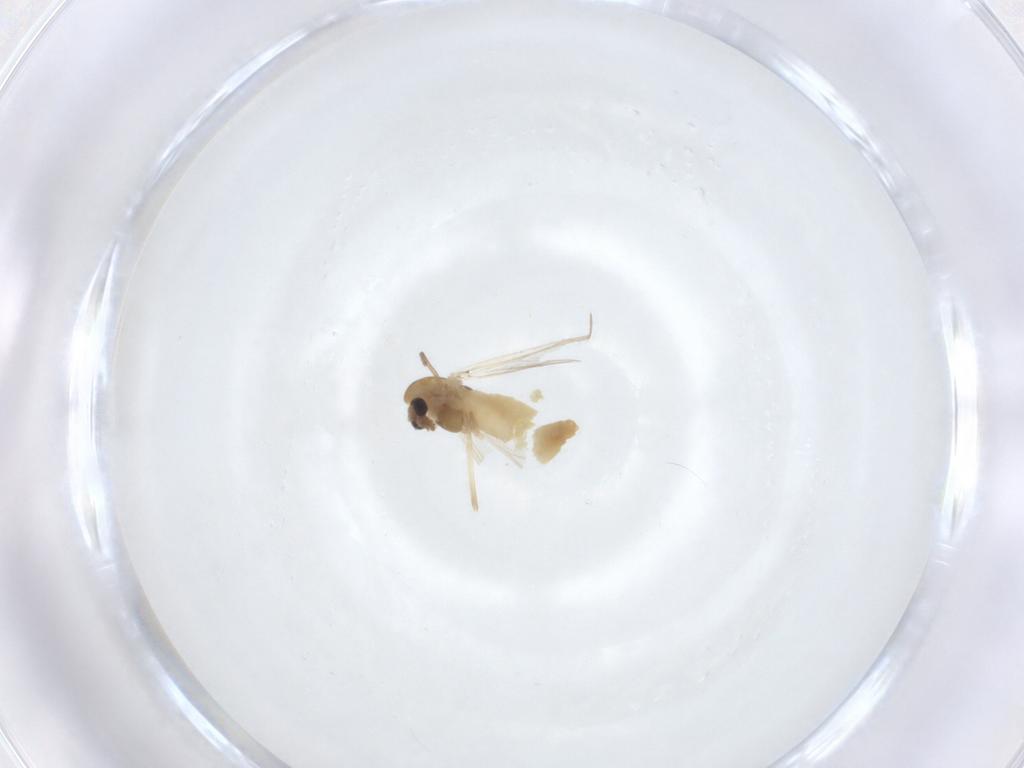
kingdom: Animalia
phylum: Arthropoda
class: Insecta
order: Diptera
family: Chironomidae
